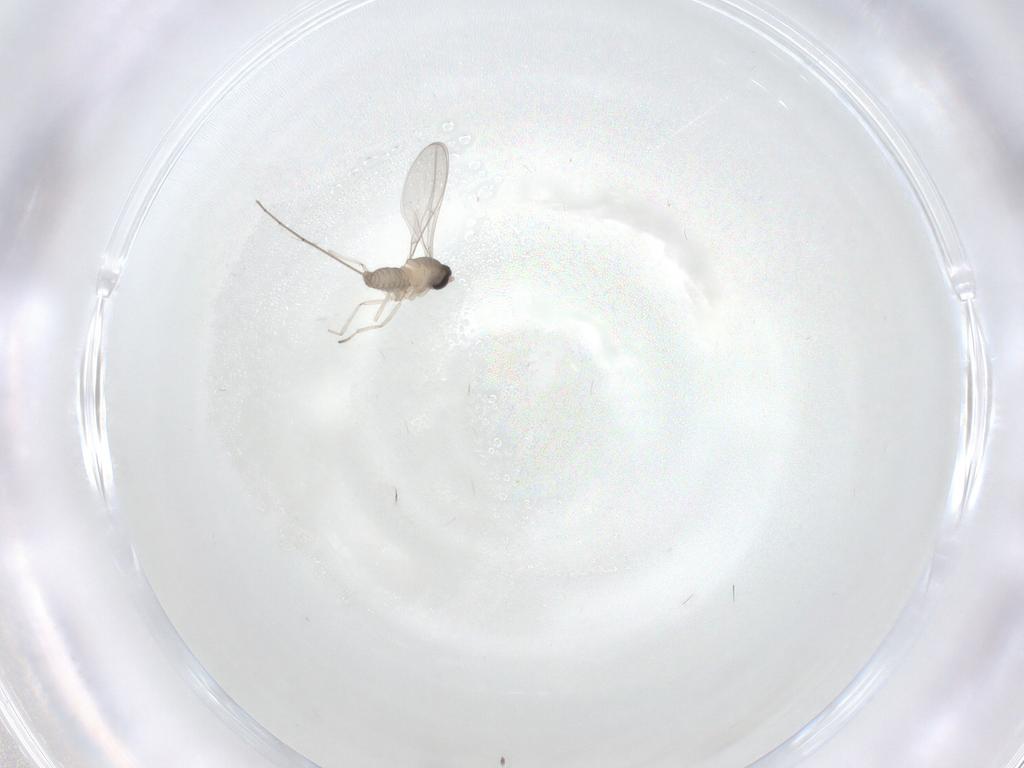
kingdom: Animalia
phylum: Arthropoda
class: Insecta
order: Diptera
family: Cecidomyiidae
